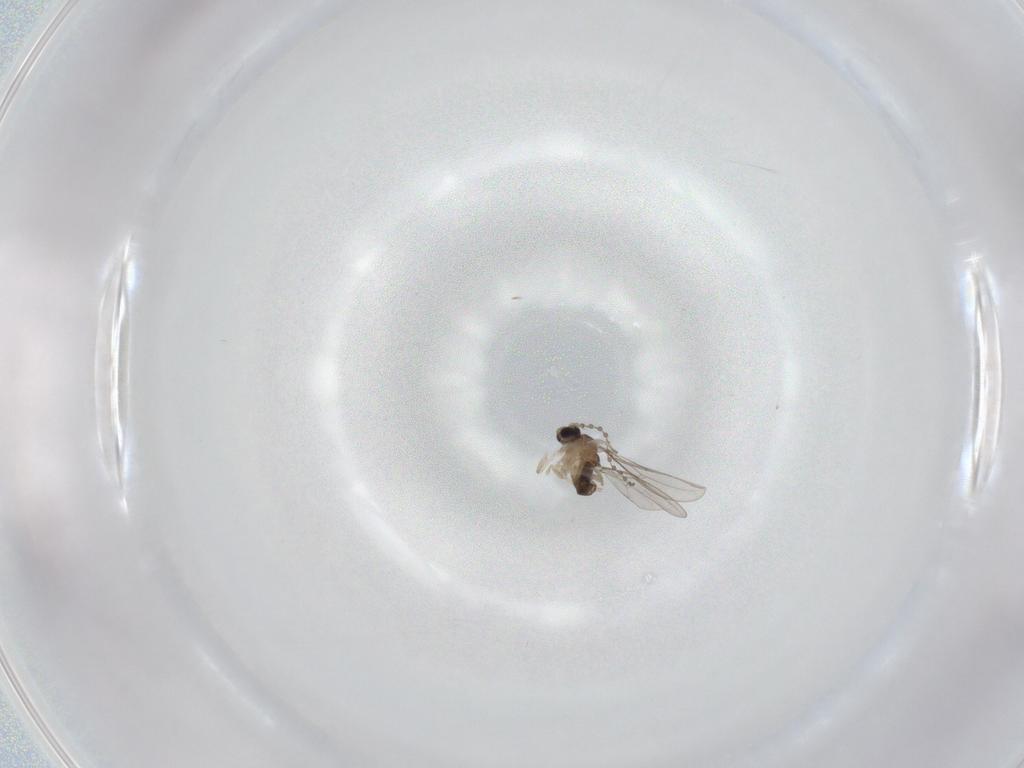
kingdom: Animalia
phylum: Arthropoda
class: Insecta
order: Diptera
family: Cecidomyiidae
